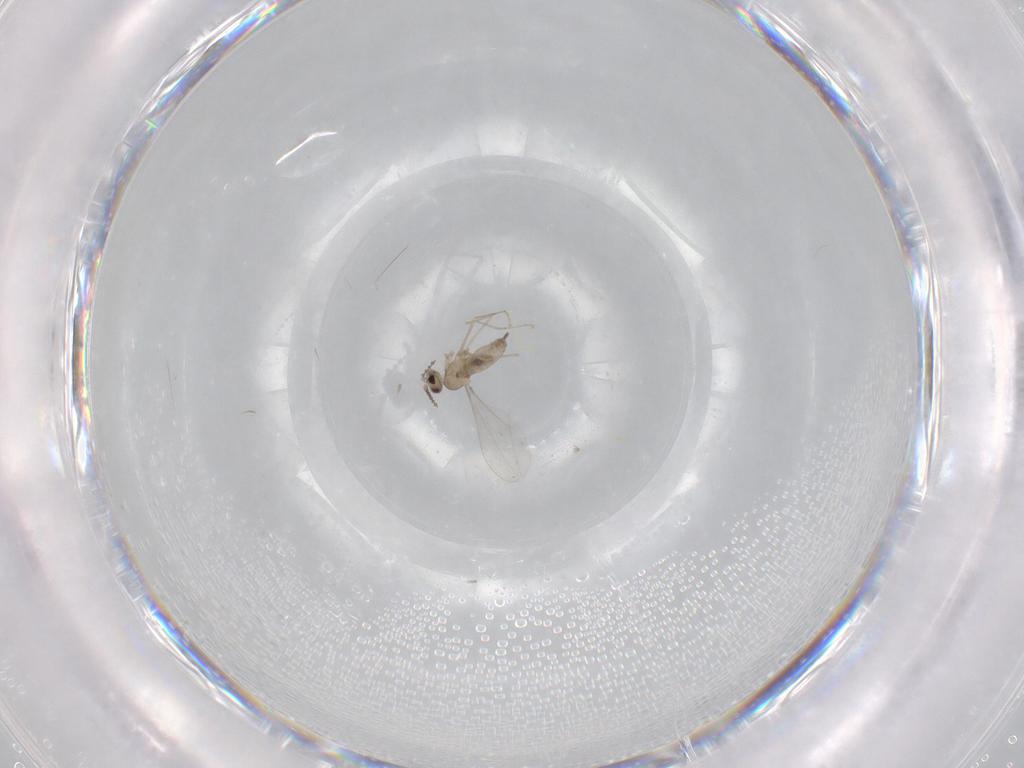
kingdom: Animalia
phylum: Arthropoda
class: Insecta
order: Diptera
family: Cecidomyiidae
